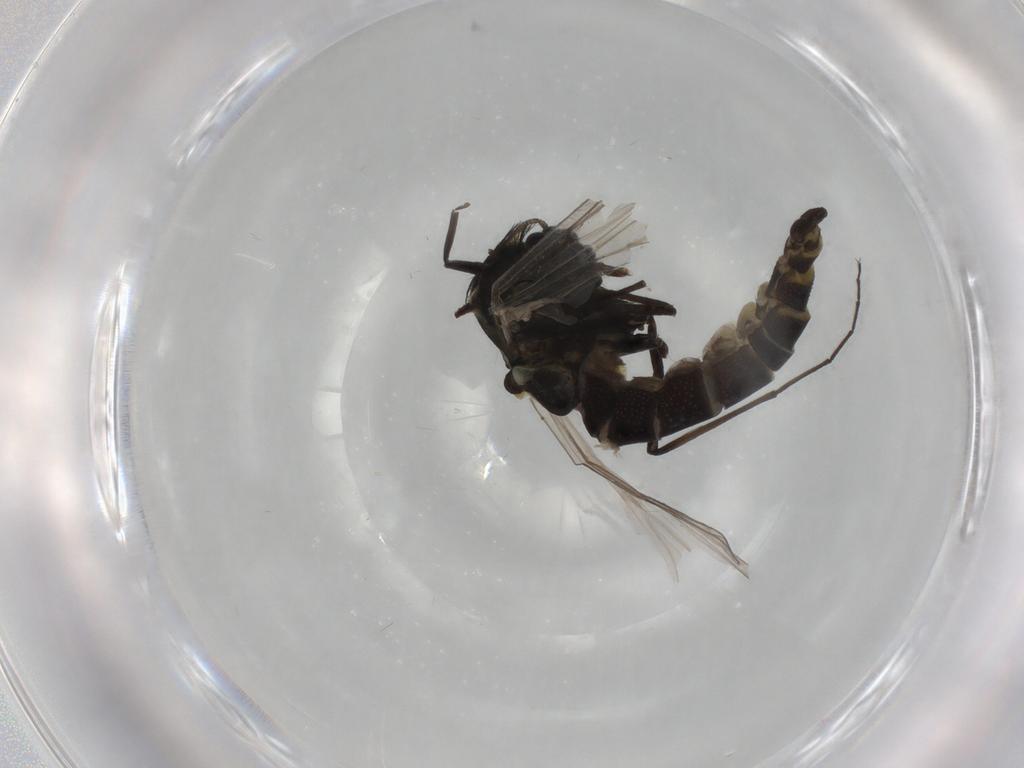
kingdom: Animalia
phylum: Arthropoda
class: Insecta
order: Diptera
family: Chironomidae
